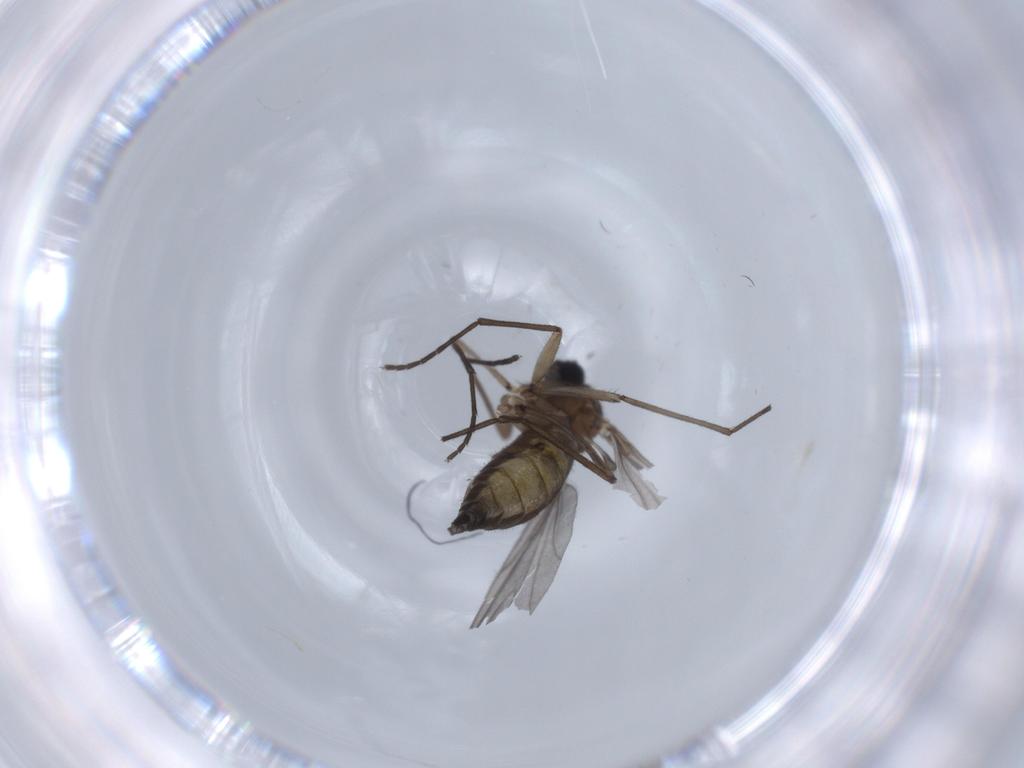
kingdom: Animalia
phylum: Arthropoda
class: Insecta
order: Diptera
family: Sciaridae
